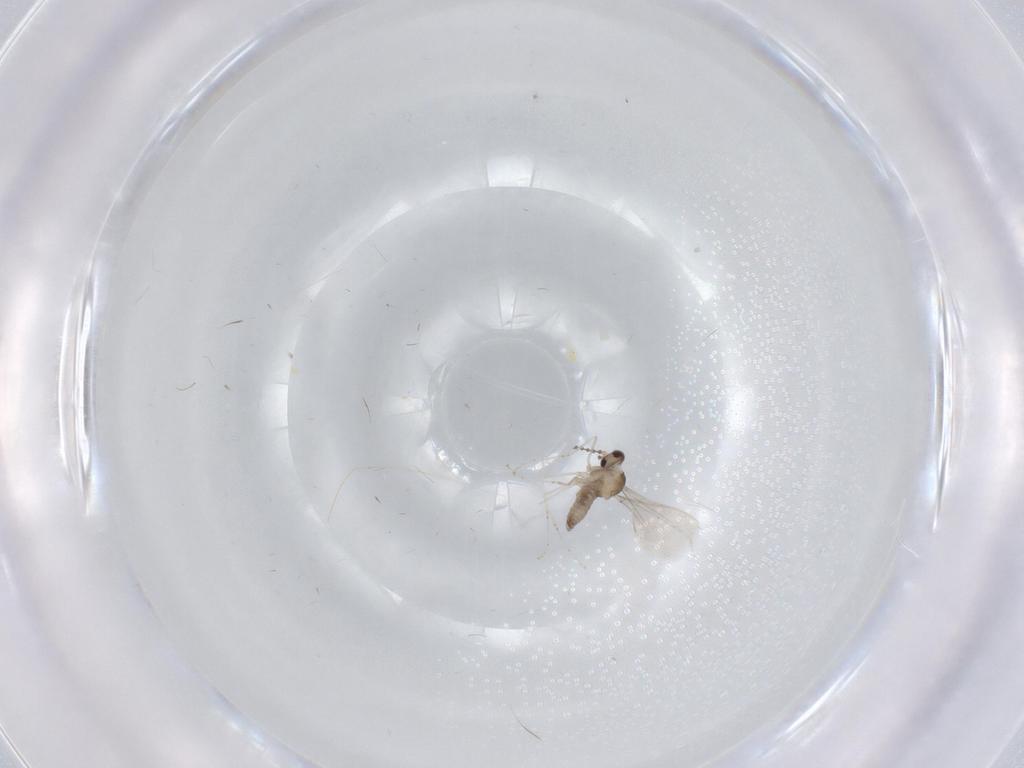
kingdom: Animalia
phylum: Arthropoda
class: Insecta
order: Diptera
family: Cecidomyiidae
